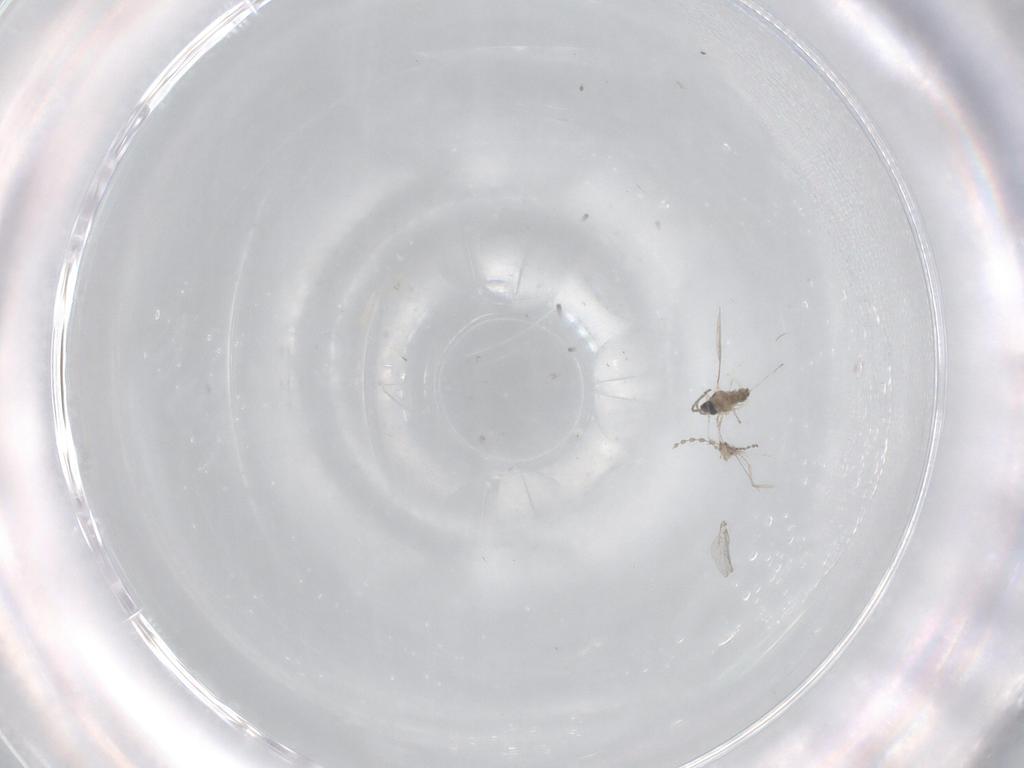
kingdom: Animalia
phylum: Arthropoda
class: Insecta
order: Diptera
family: Cecidomyiidae
